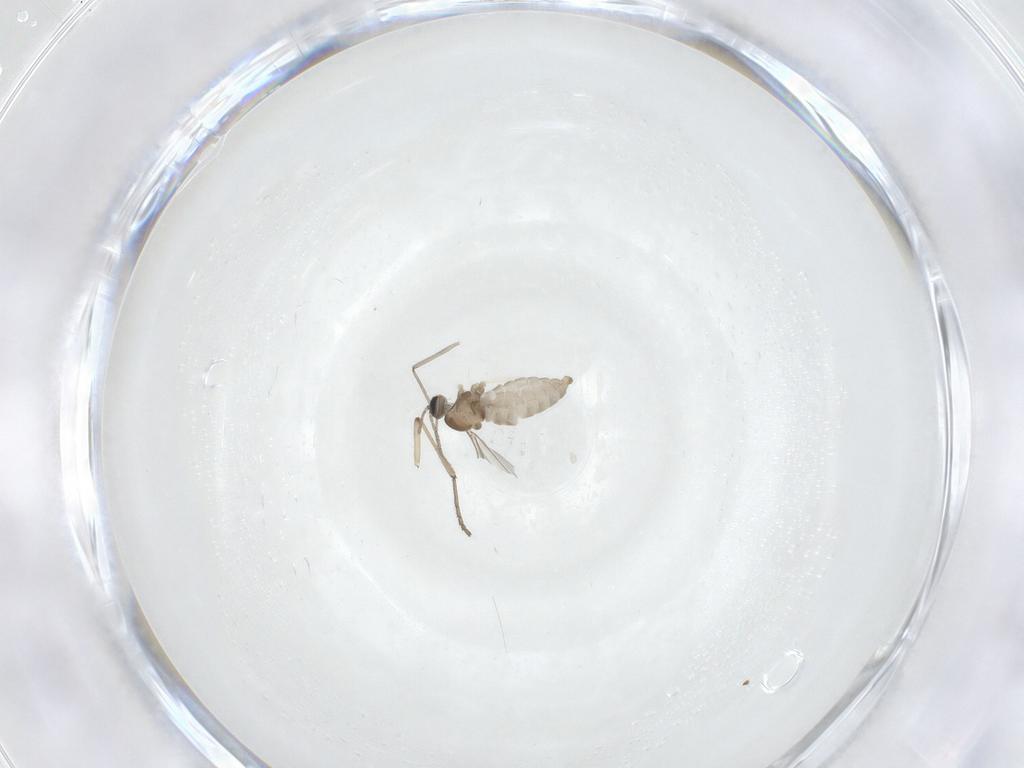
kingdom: Animalia
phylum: Arthropoda
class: Insecta
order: Diptera
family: Cecidomyiidae
